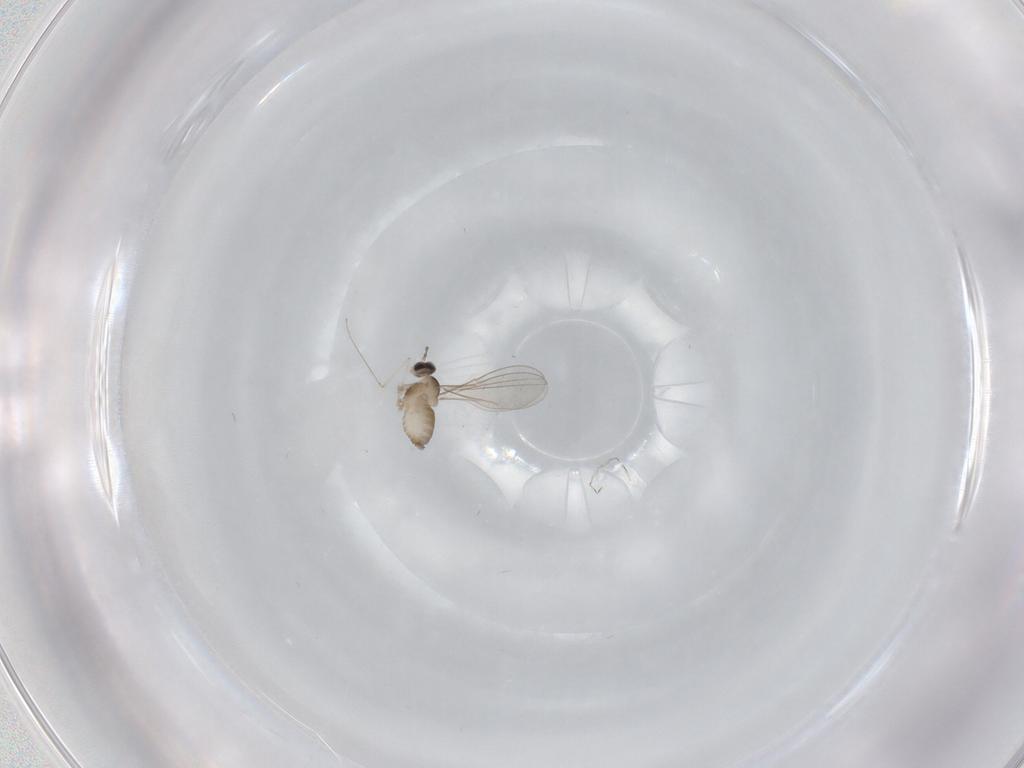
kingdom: Animalia
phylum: Arthropoda
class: Insecta
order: Diptera
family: Cecidomyiidae
